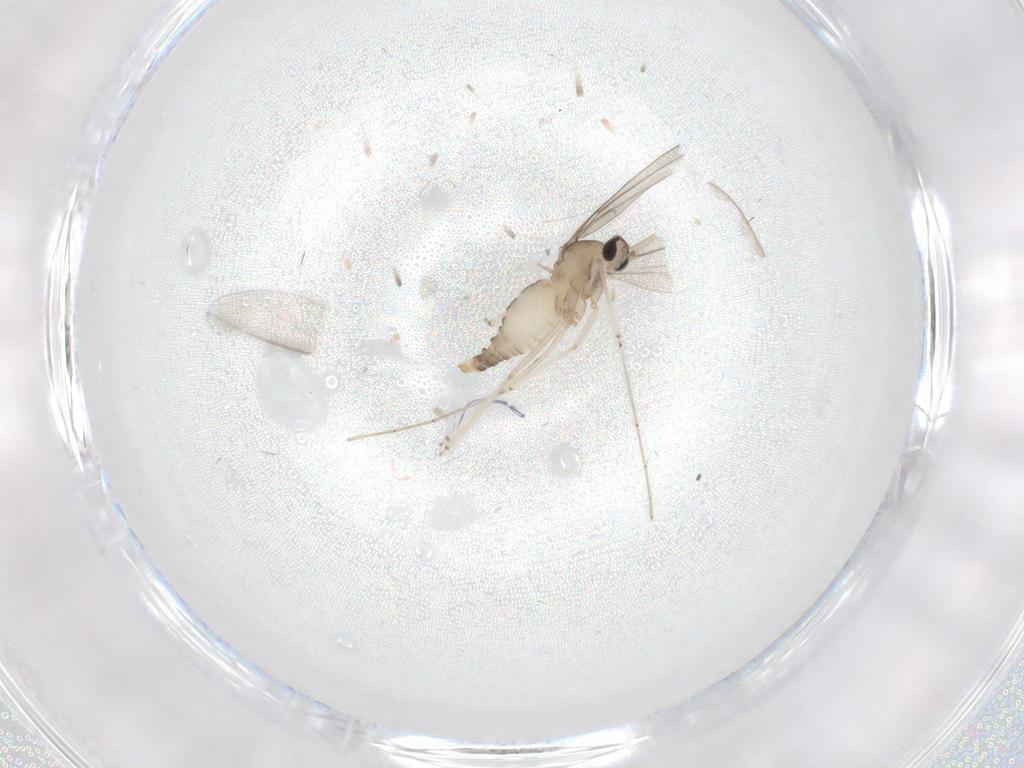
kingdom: Animalia
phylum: Arthropoda
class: Insecta
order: Diptera
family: Cecidomyiidae
